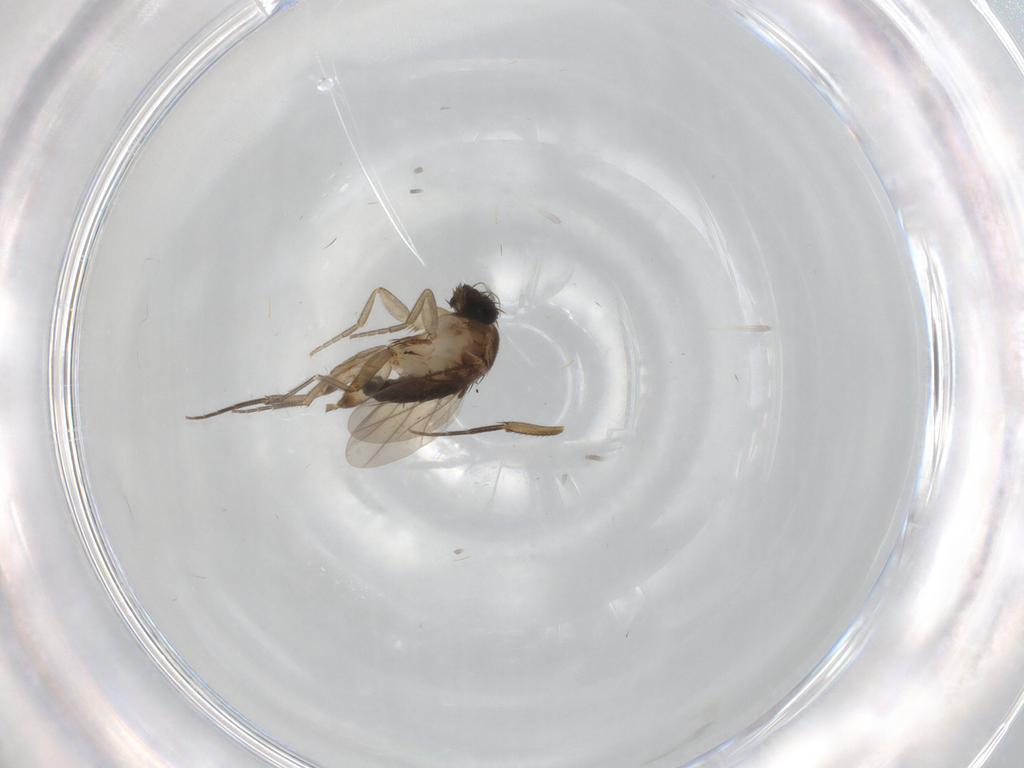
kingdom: Animalia
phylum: Arthropoda
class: Insecta
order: Diptera
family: Phoridae
